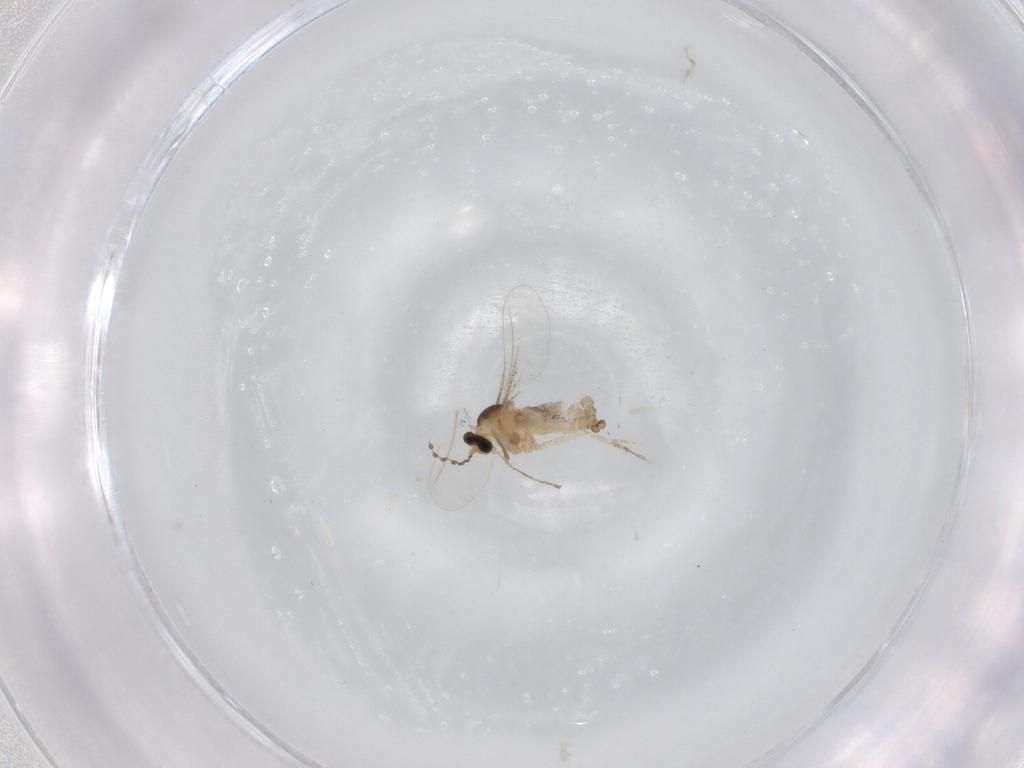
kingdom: Animalia
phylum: Arthropoda
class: Insecta
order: Diptera
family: Cecidomyiidae
